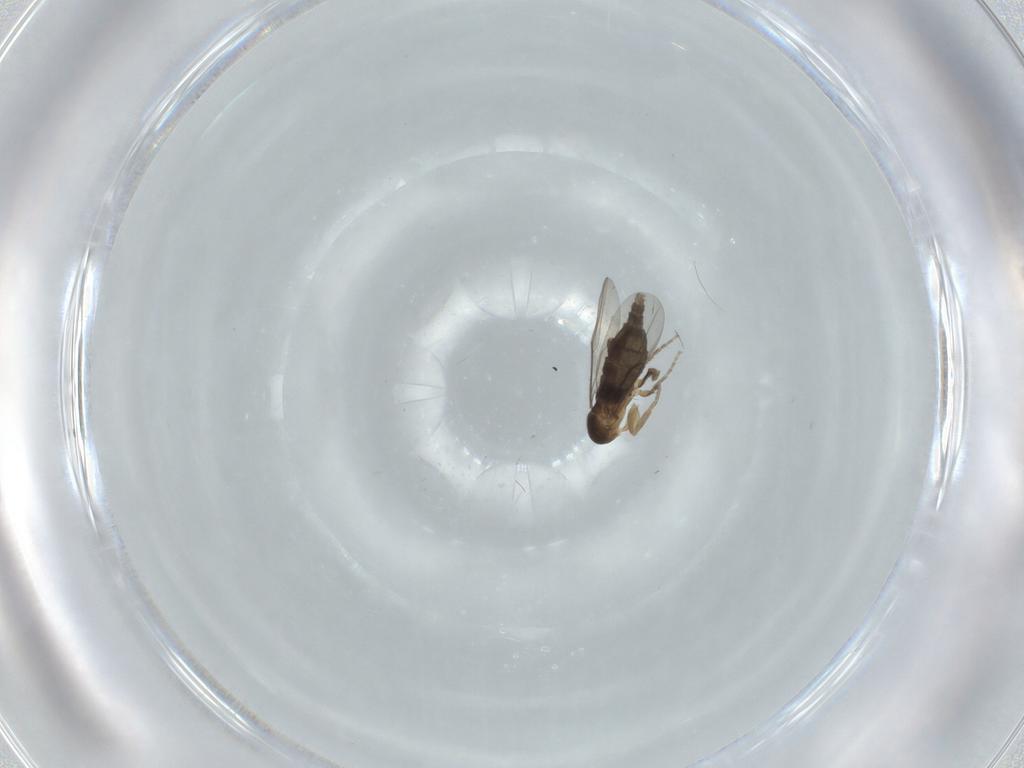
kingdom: Animalia
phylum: Arthropoda
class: Insecta
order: Diptera
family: Phoridae
